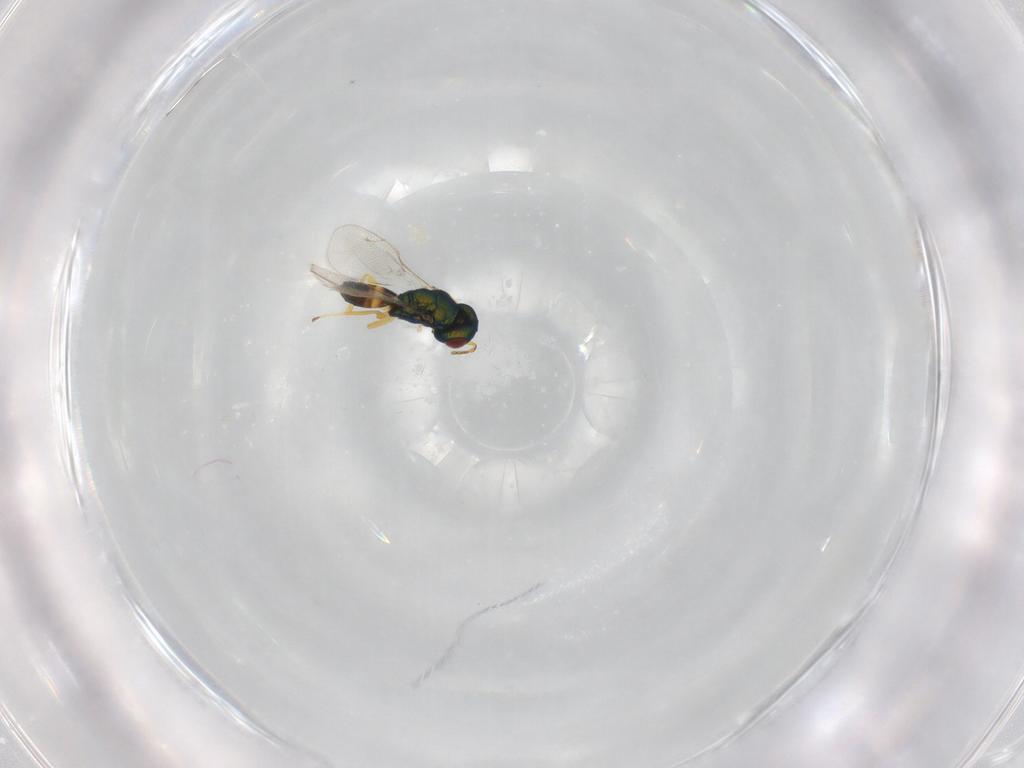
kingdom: Animalia
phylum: Arthropoda
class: Insecta
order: Hymenoptera
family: Pteromalidae
